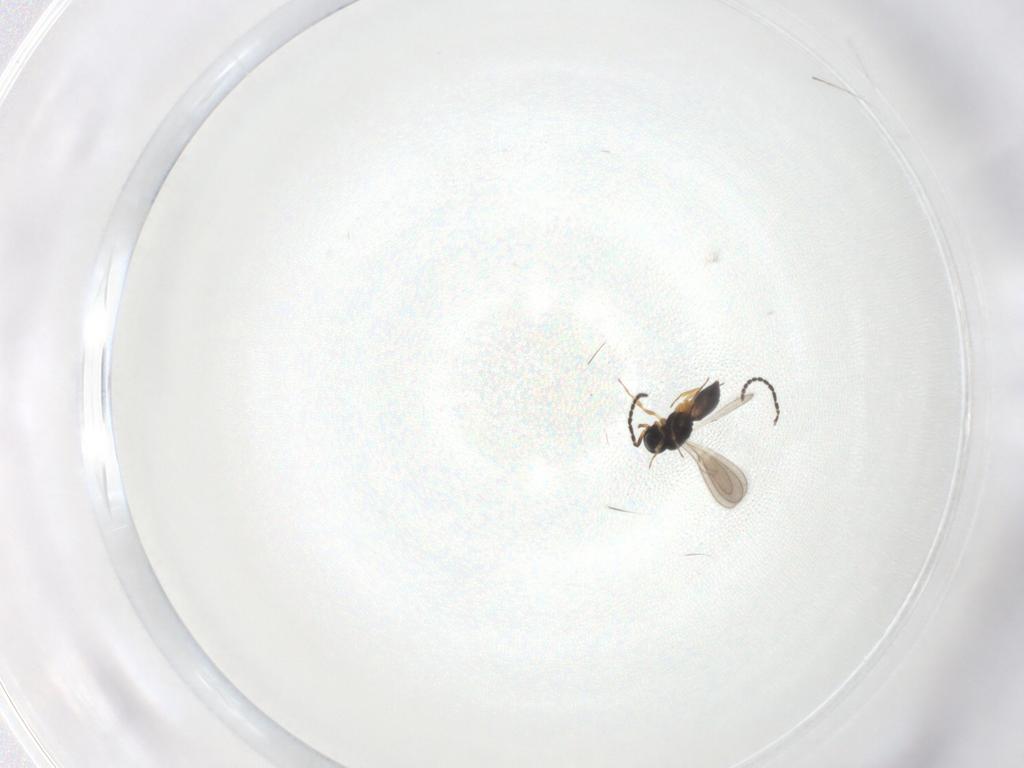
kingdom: Animalia
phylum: Arthropoda
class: Insecta
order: Hymenoptera
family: Scelionidae
